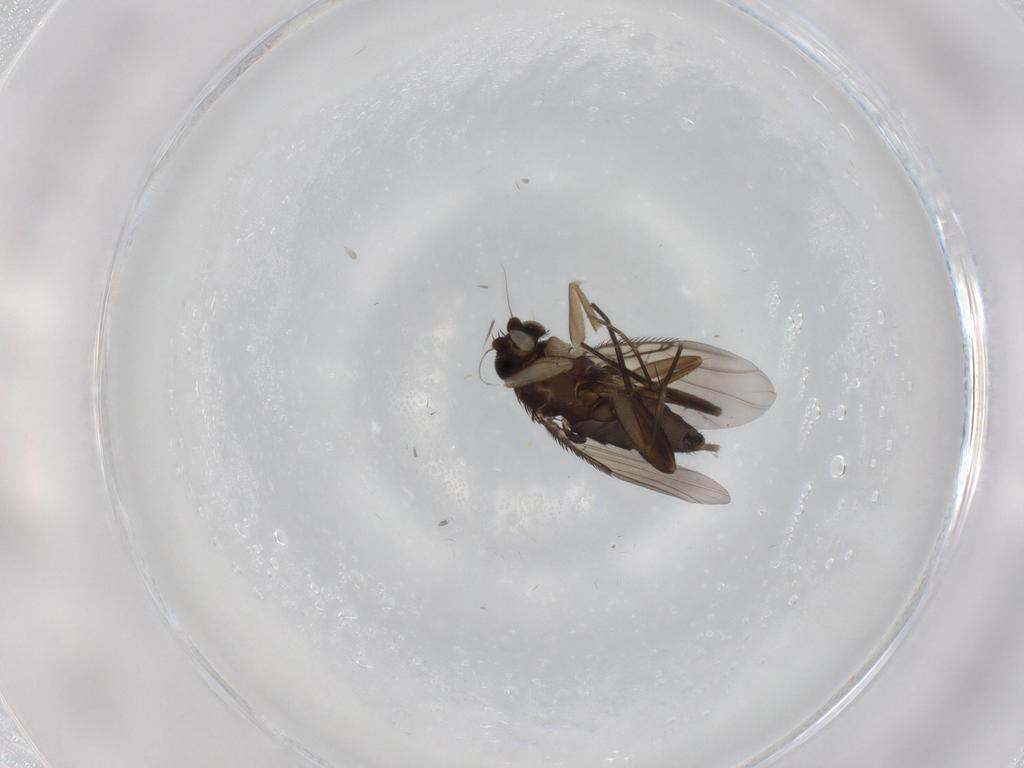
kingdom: Animalia
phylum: Arthropoda
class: Insecta
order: Diptera
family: Phoridae
